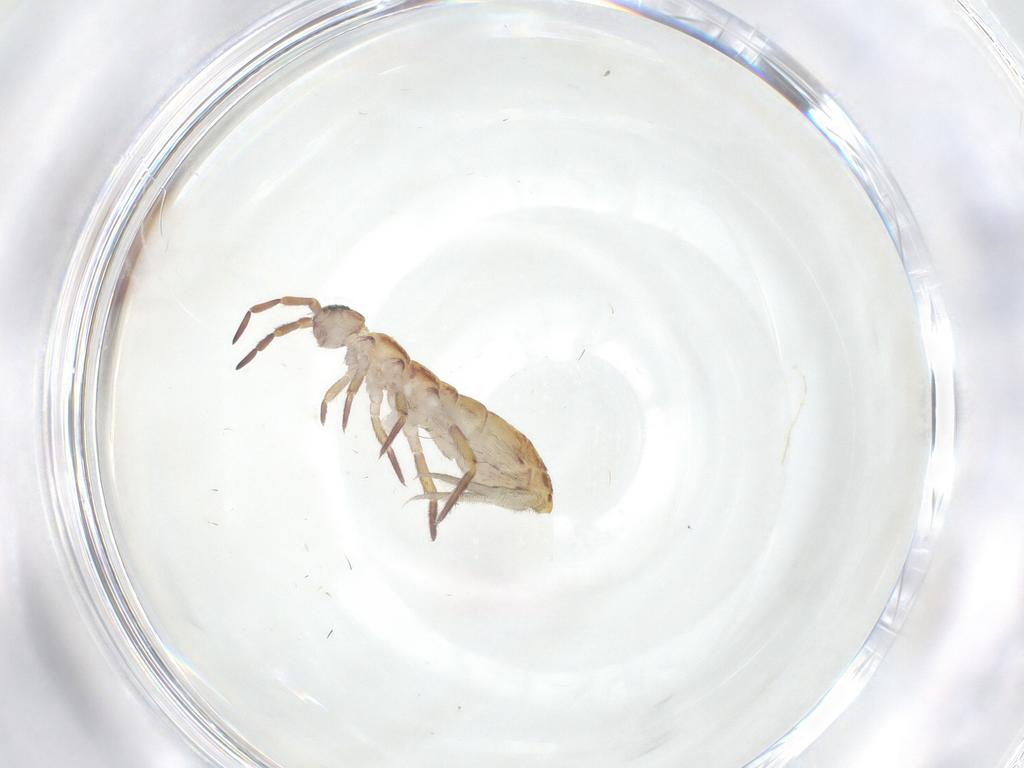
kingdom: Animalia
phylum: Arthropoda
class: Collembola
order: Entomobryomorpha
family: Isotomidae
